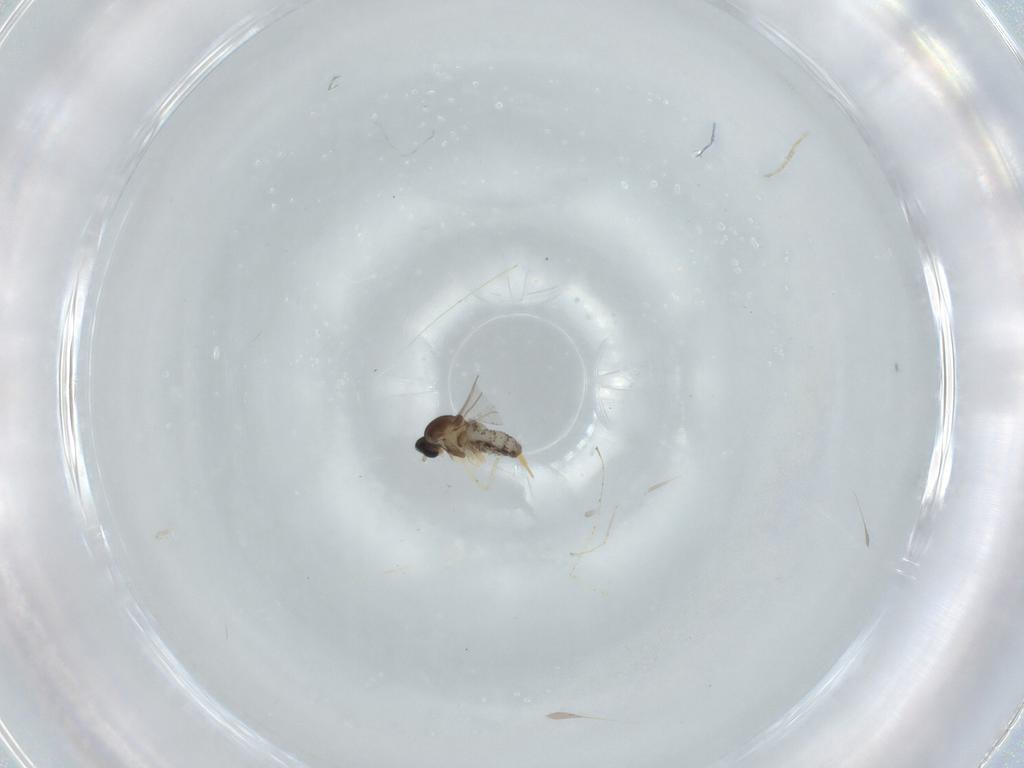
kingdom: Animalia
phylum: Arthropoda
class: Insecta
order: Diptera
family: Cecidomyiidae
